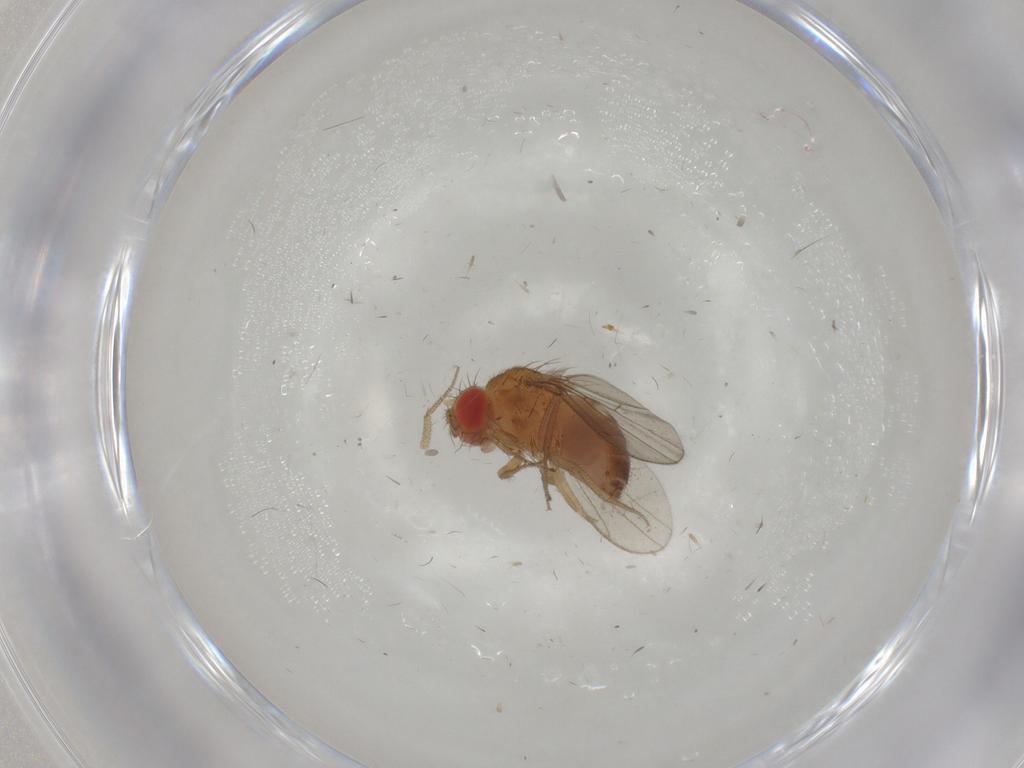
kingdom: Animalia
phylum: Arthropoda
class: Insecta
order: Diptera
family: Drosophilidae
